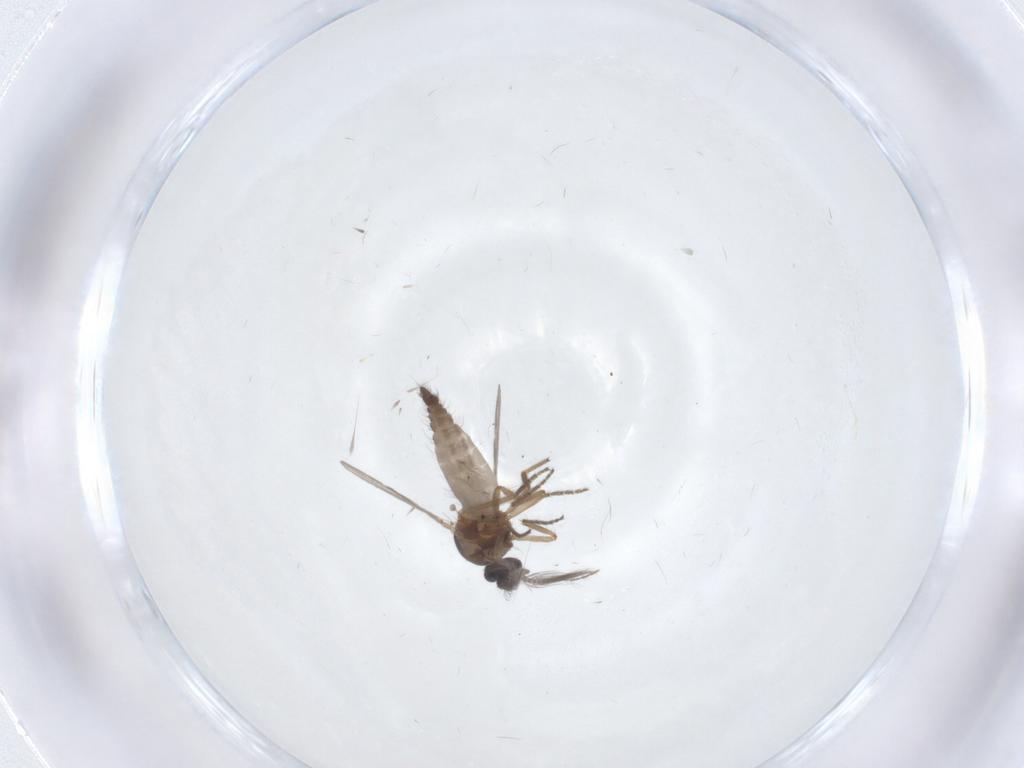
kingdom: Animalia
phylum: Arthropoda
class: Insecta
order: Diptera
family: Ceratopogonidae
